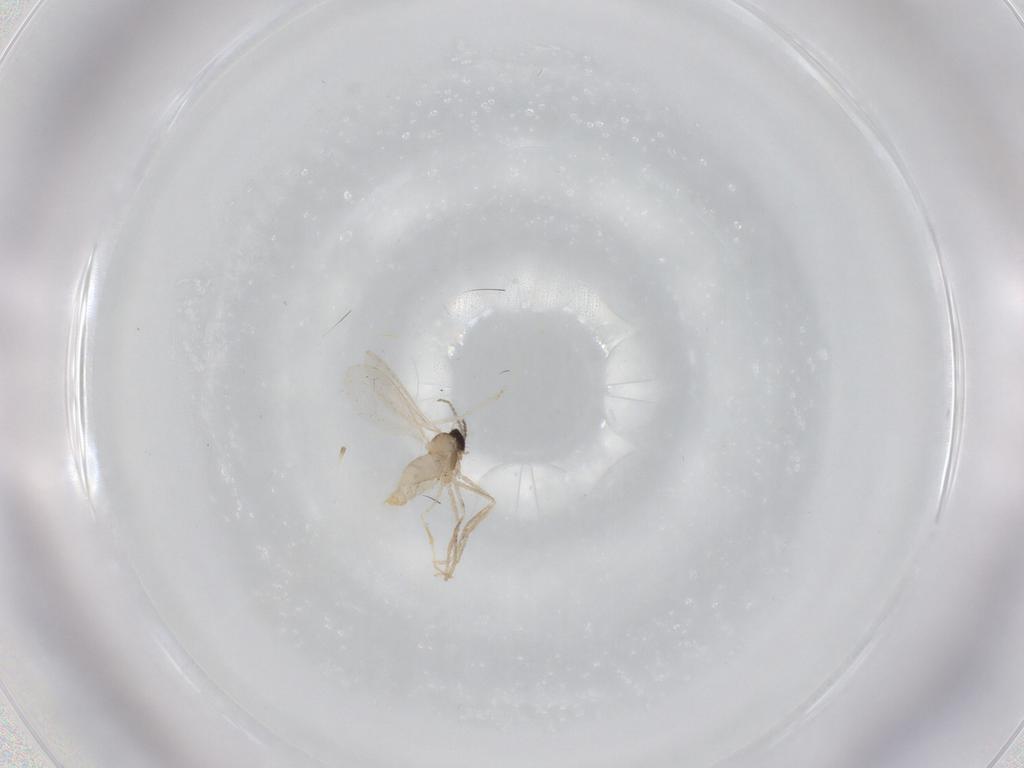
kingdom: Animalia
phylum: Arthropoda
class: Insecta
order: Diptera
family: Cecidomyiidae
